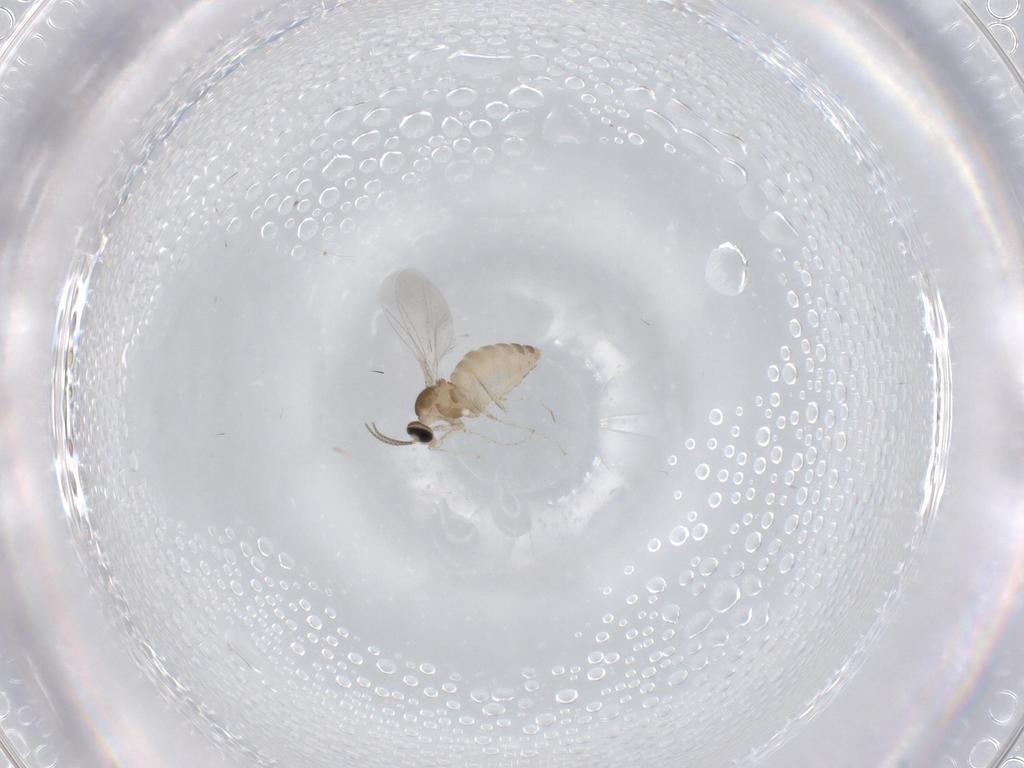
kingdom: Animalia
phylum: Arthropoda
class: Insecta
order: Diptera
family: Cecidomyiidae
